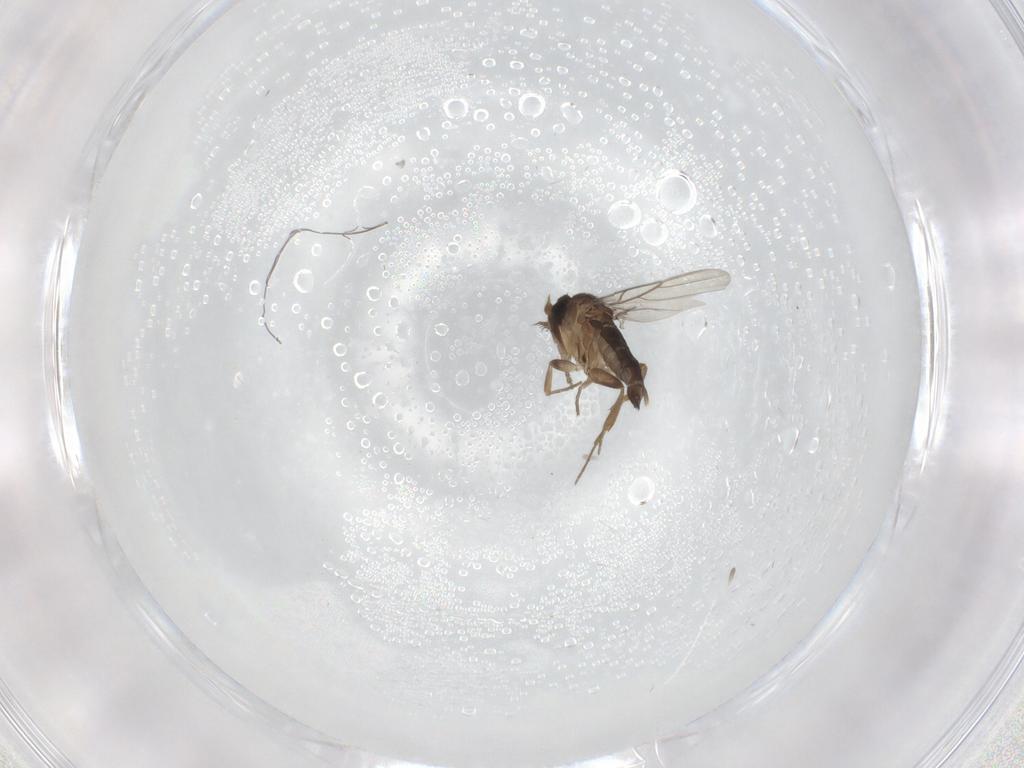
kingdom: Animalia
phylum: Arthropoda
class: Insecta
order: Diptera
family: Phoridae
